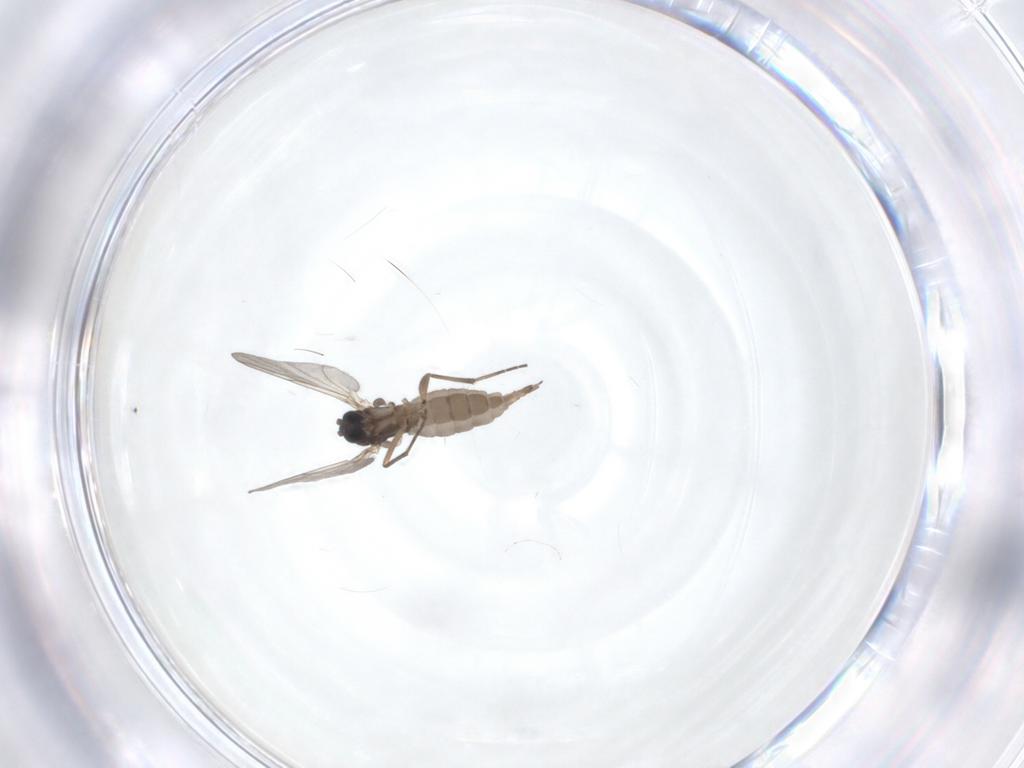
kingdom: Animalia
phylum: Arthropoda
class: Insecta
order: Diptera
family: Sciaridae
